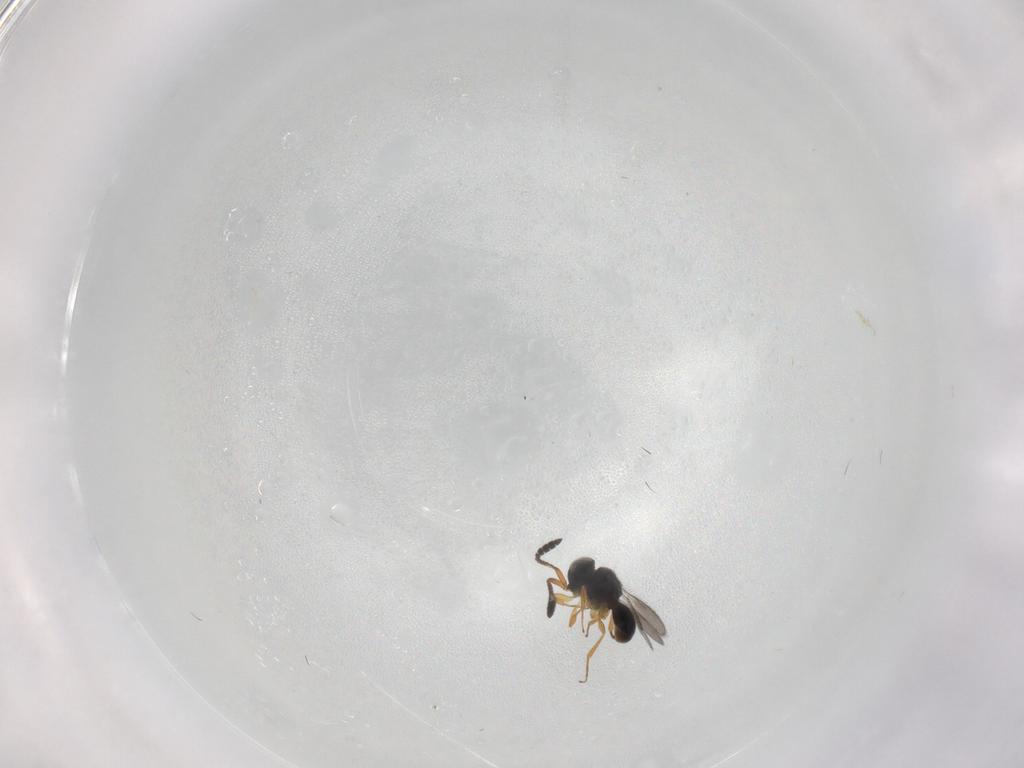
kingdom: Animalia
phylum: Arthropoda
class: Insecta
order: Hymenoptera
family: Scelionidae
